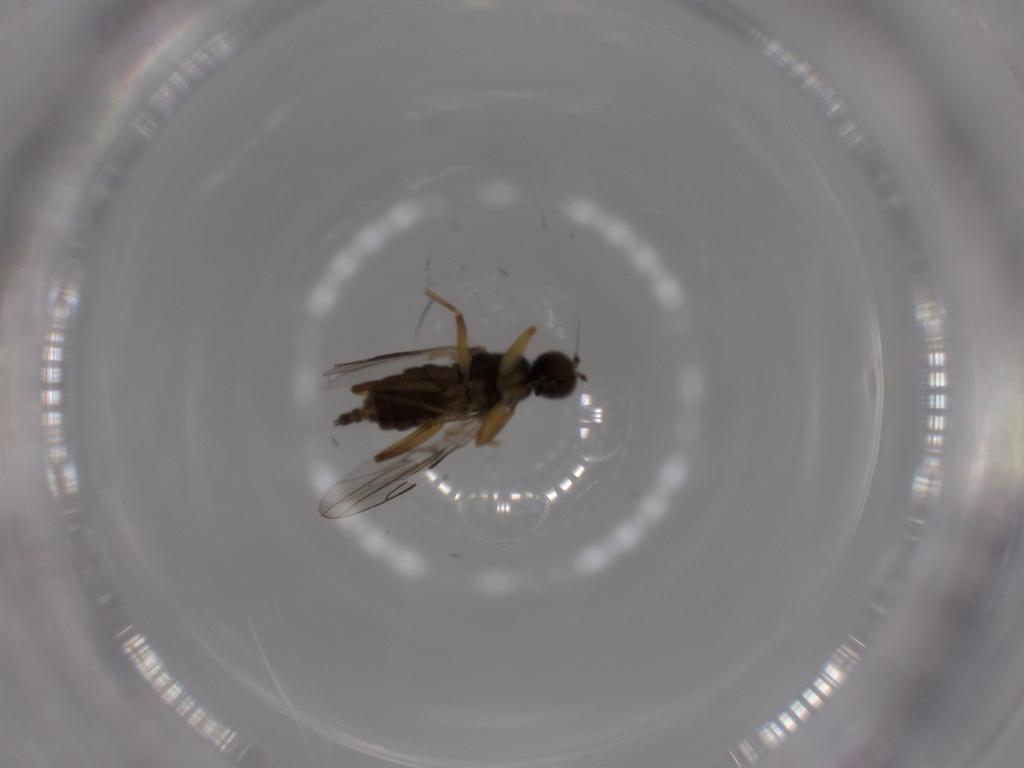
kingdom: Animalia
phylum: Arthropoda
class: Insecta
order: Diptera
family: Hybotidae
